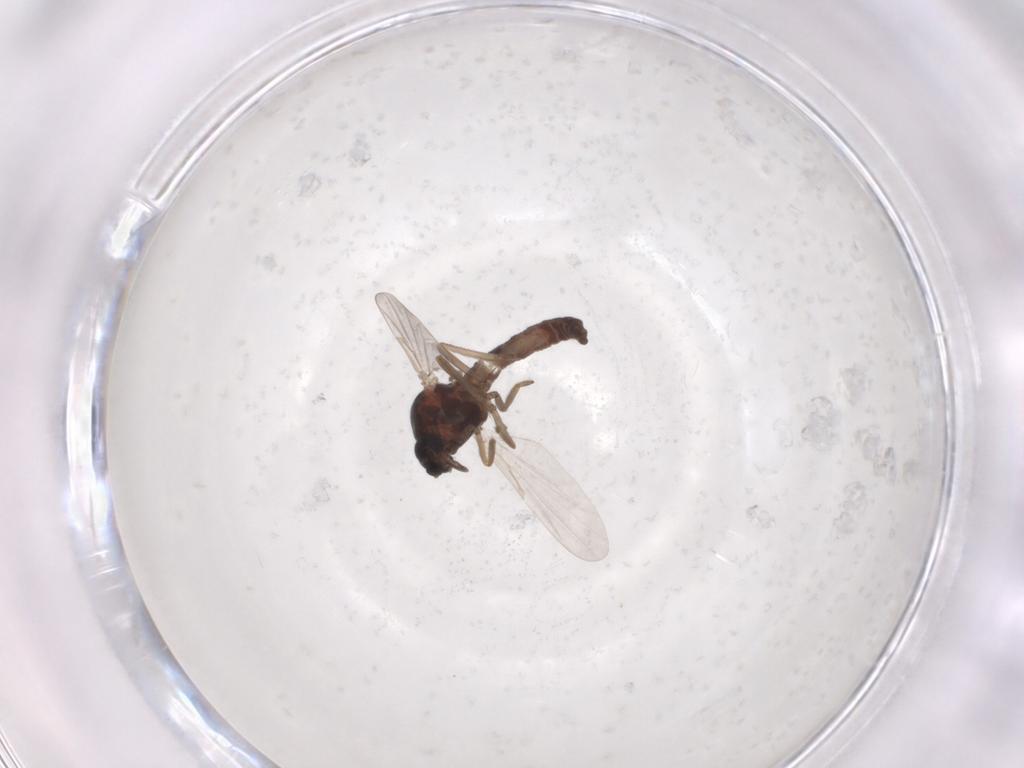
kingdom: Animalia
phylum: Arthropoda
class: Insecta
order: Diptera
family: Ceratopogonidae
